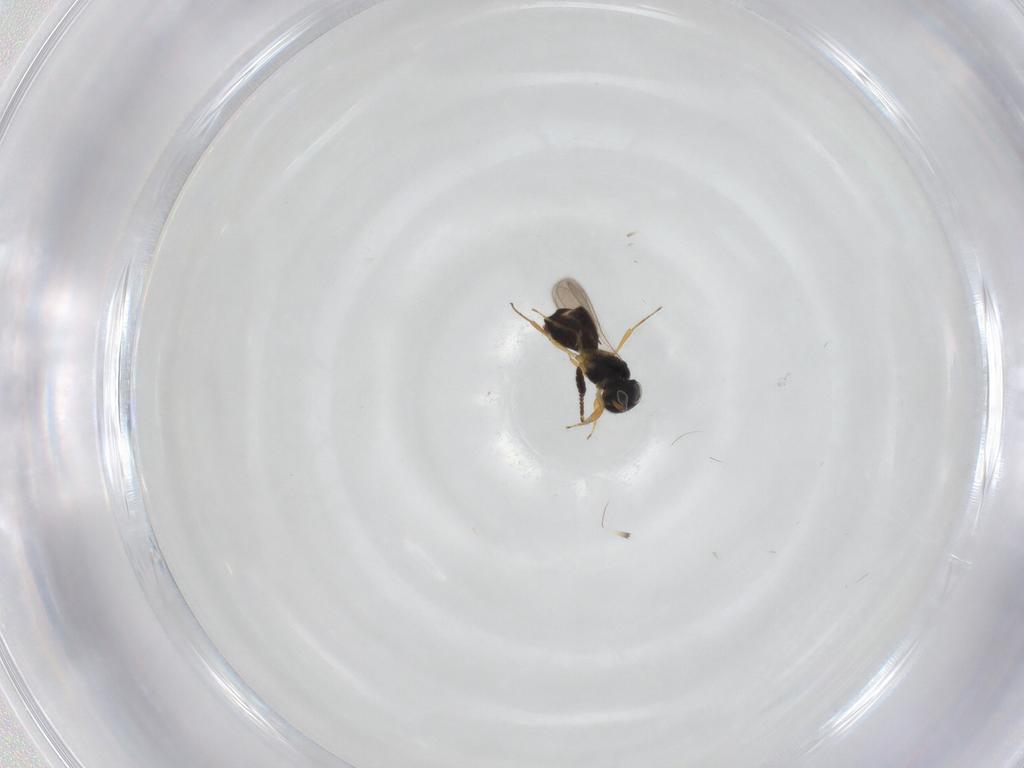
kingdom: Animalia
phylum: Arthropoda
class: Insecta
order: Hymenoptera
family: Scelionidae
